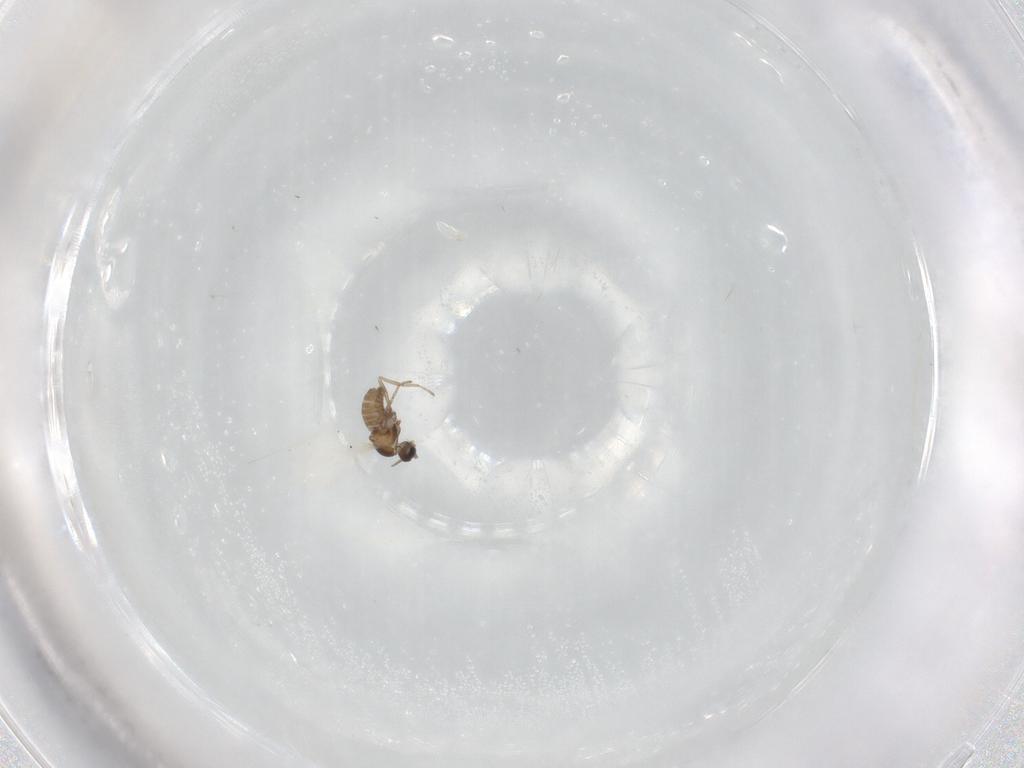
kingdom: Animalia
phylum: Arthropoda
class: Insecta
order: Diptera
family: Cecidomyiidae
